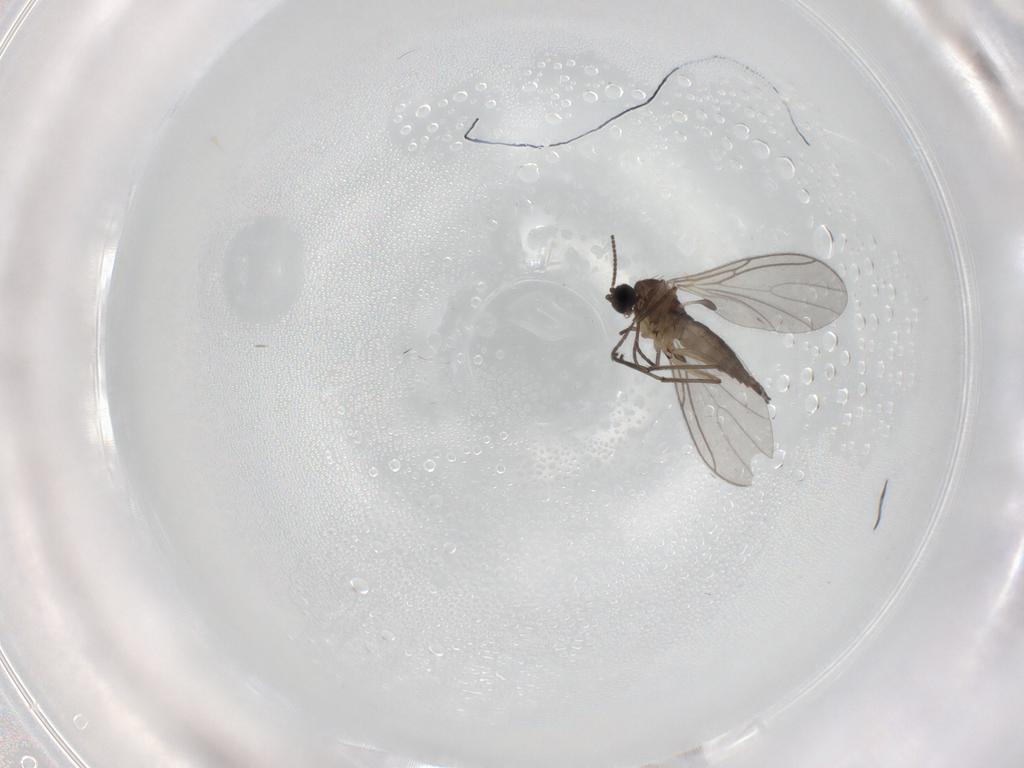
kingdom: Animalia
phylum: Arthropoda
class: Insecta
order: Diptera
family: Sciaridae
